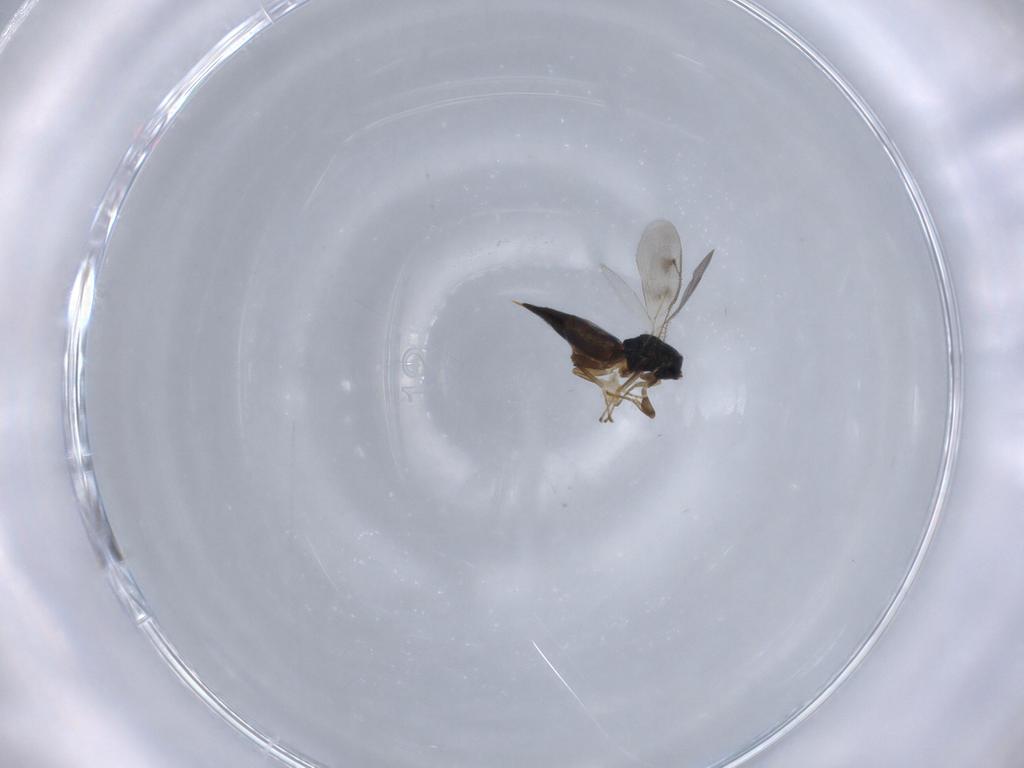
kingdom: Animalia
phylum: Arthropoda
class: Insecta
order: Hymenoptera
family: Pteromalidae
